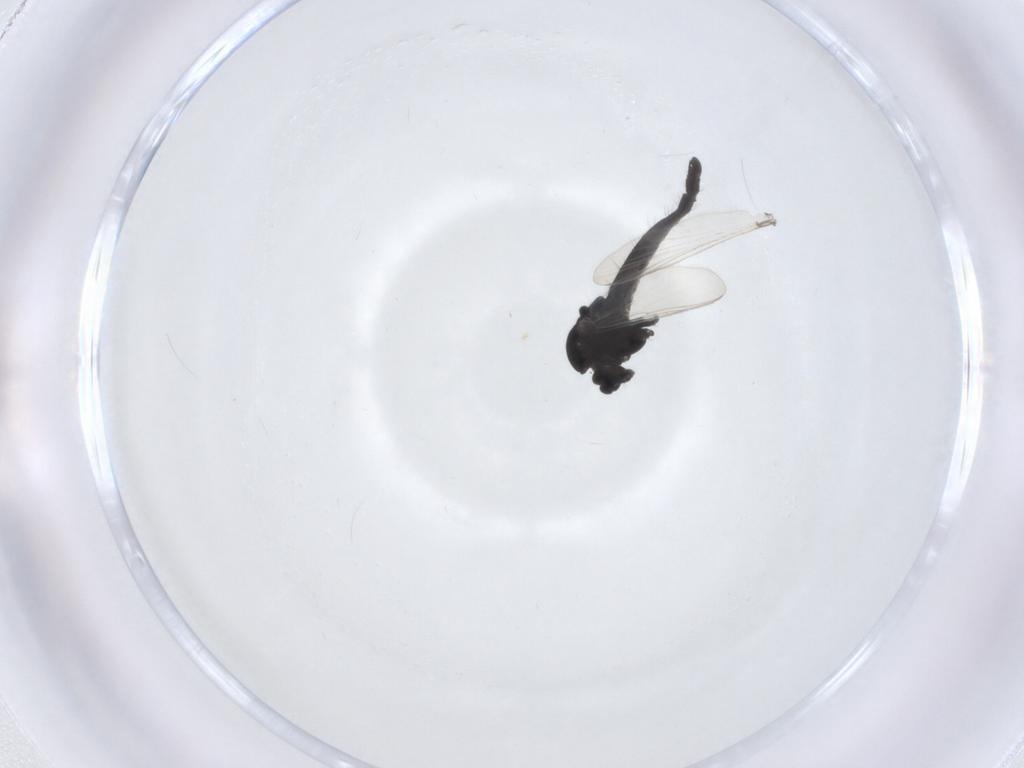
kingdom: Animalia
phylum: Arthropoda
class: Insecta
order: Diptera
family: Chironomidae
